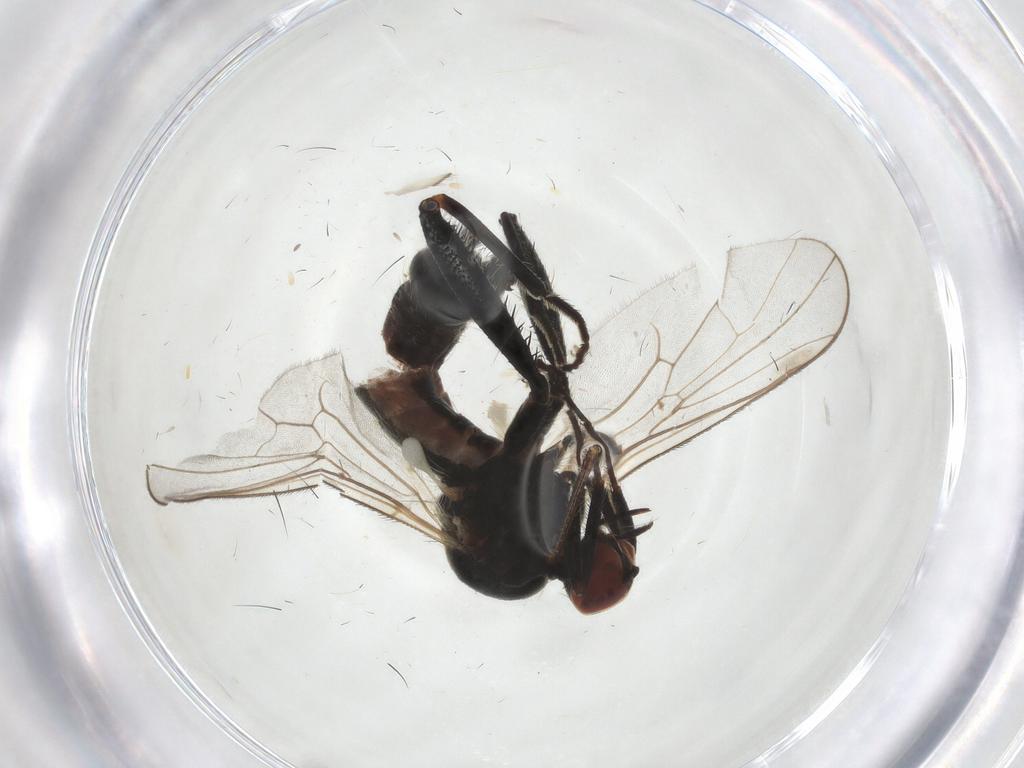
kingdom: Animalia
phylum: Arthropoda
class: Insecta
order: Diptera
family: Sciaridae
